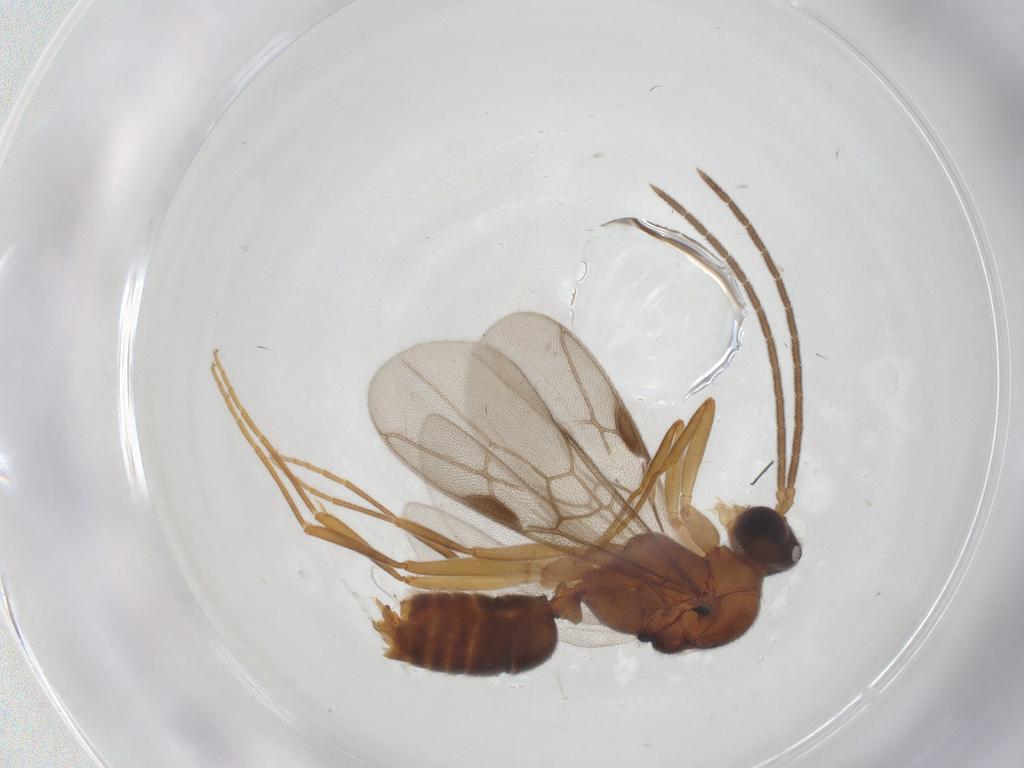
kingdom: Animalia
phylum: Arthropoda
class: Insecta
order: Hymenoptera
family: Formicidae
